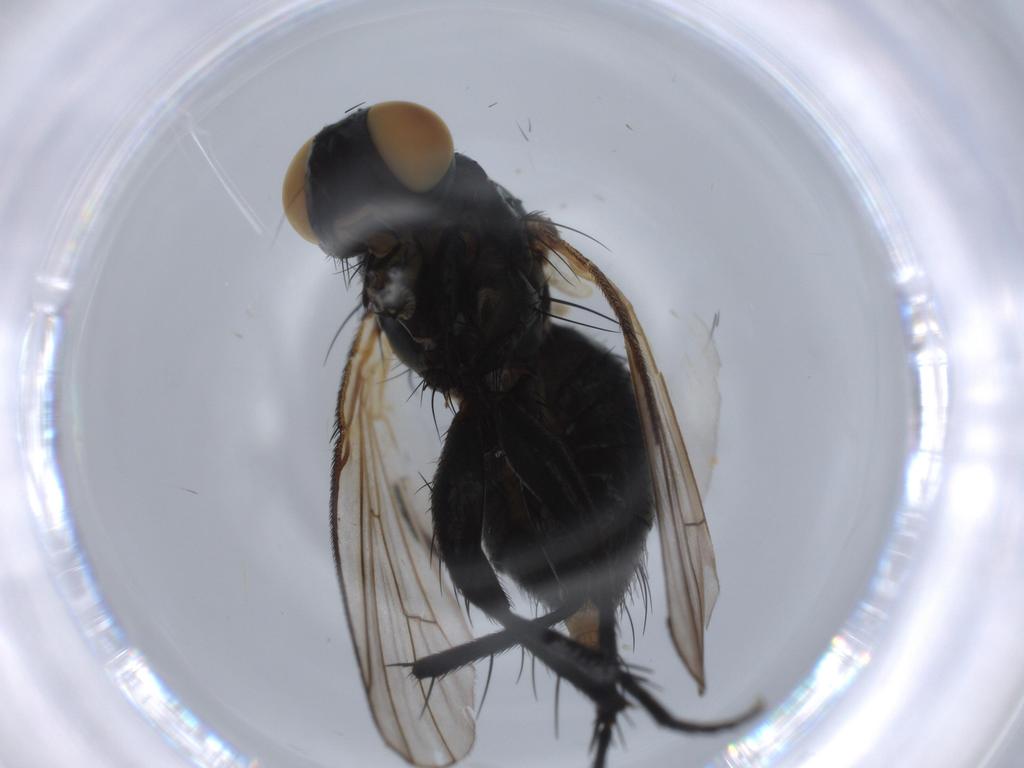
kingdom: Animalia
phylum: Arthropoda
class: Insecta
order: Diptera
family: Muscidae
